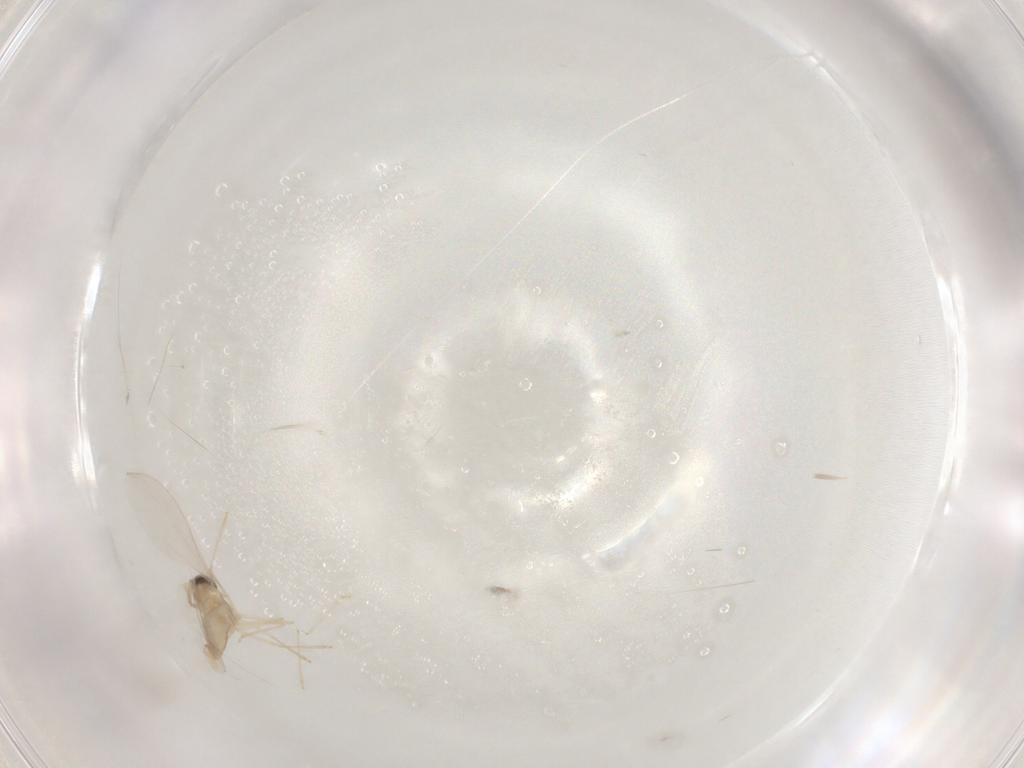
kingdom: Animalia
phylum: Arthropoda
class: Insecta
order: Diptera
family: Cecidomyiidae
